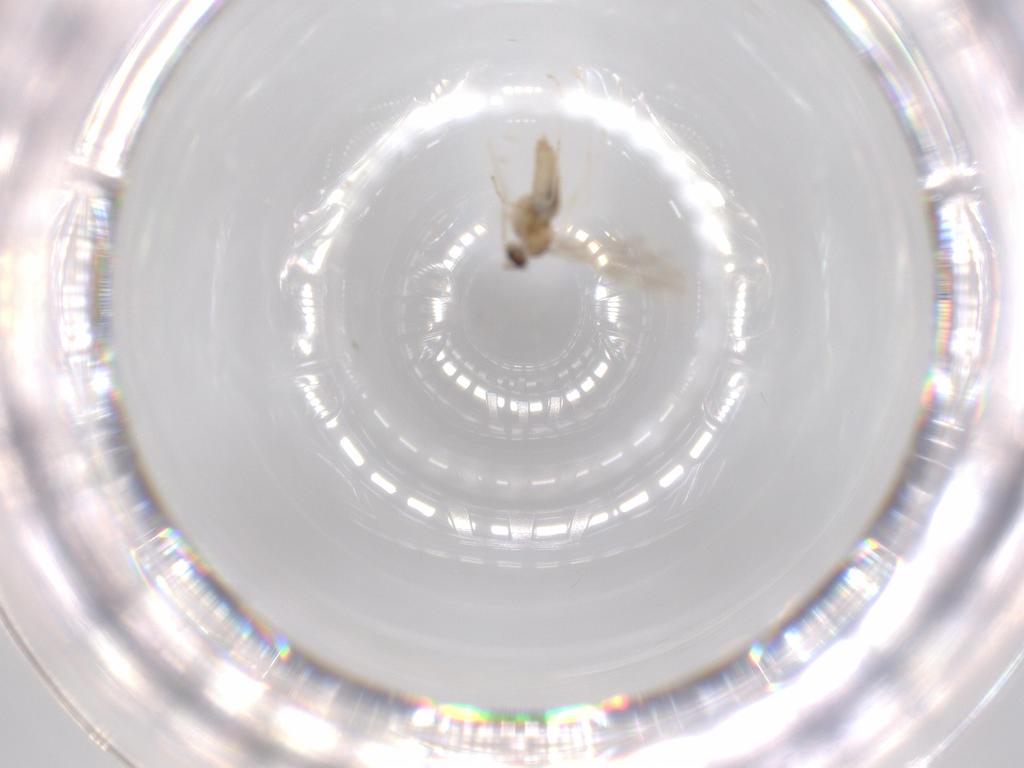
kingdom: Animalia
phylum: Arthropoda
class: Insecta
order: Diptera
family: Cecidomyiidae
